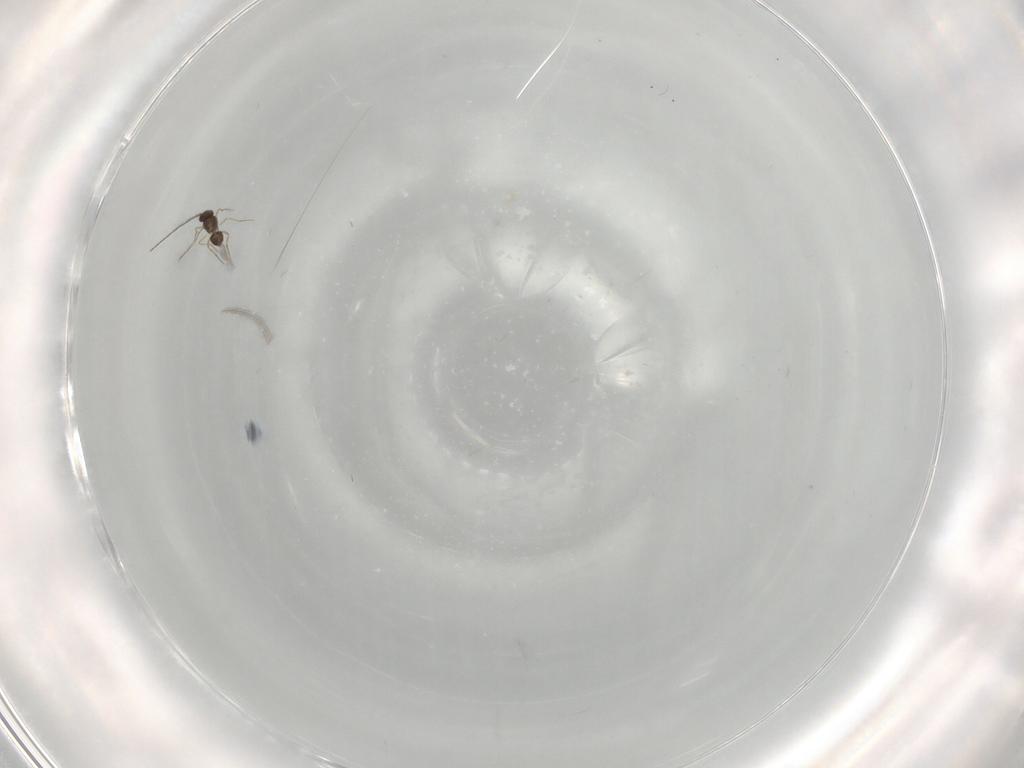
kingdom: Animalia
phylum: Arthropoda
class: Insecta
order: Hymenoptera
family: Mymaridae
